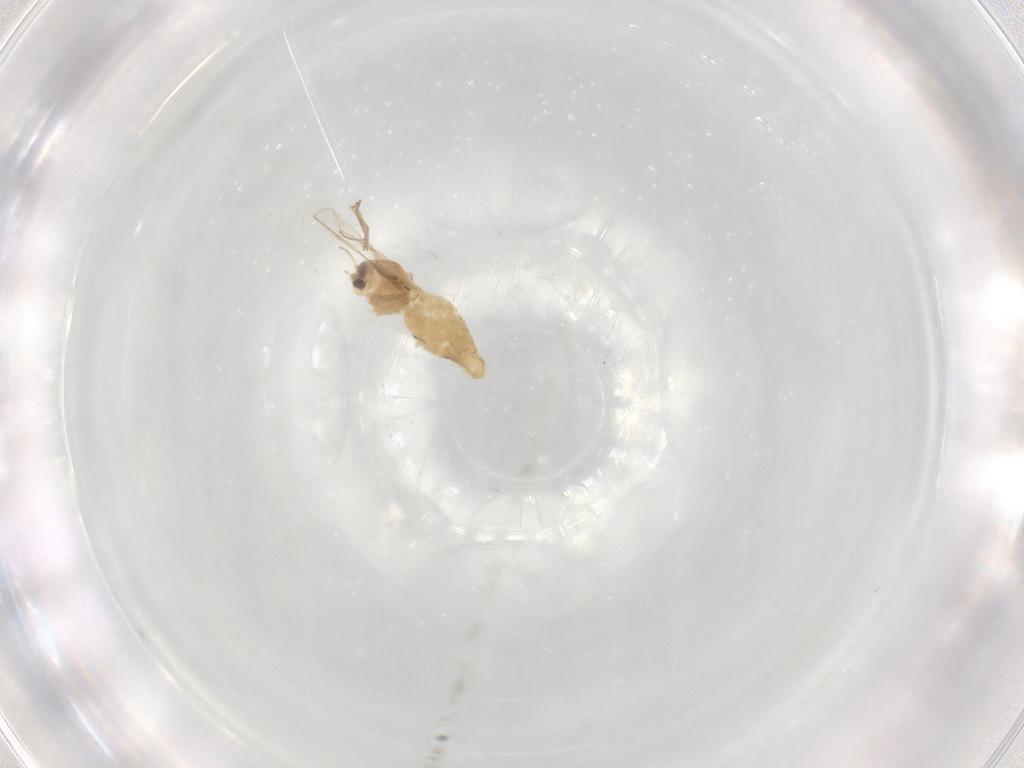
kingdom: Animalia
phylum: Arthropoda
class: Insecta
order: Diptera
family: Chironomidae
